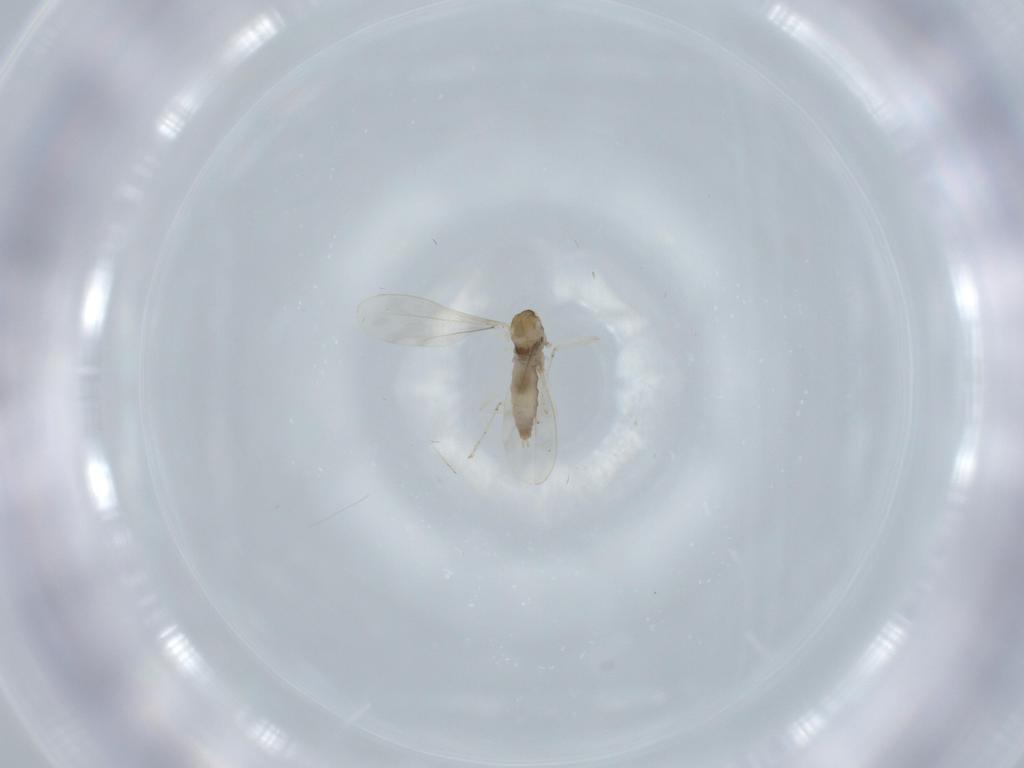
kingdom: Animalia
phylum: Arthropoda
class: Insecta
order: Diptera
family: Cecidomyiidae
